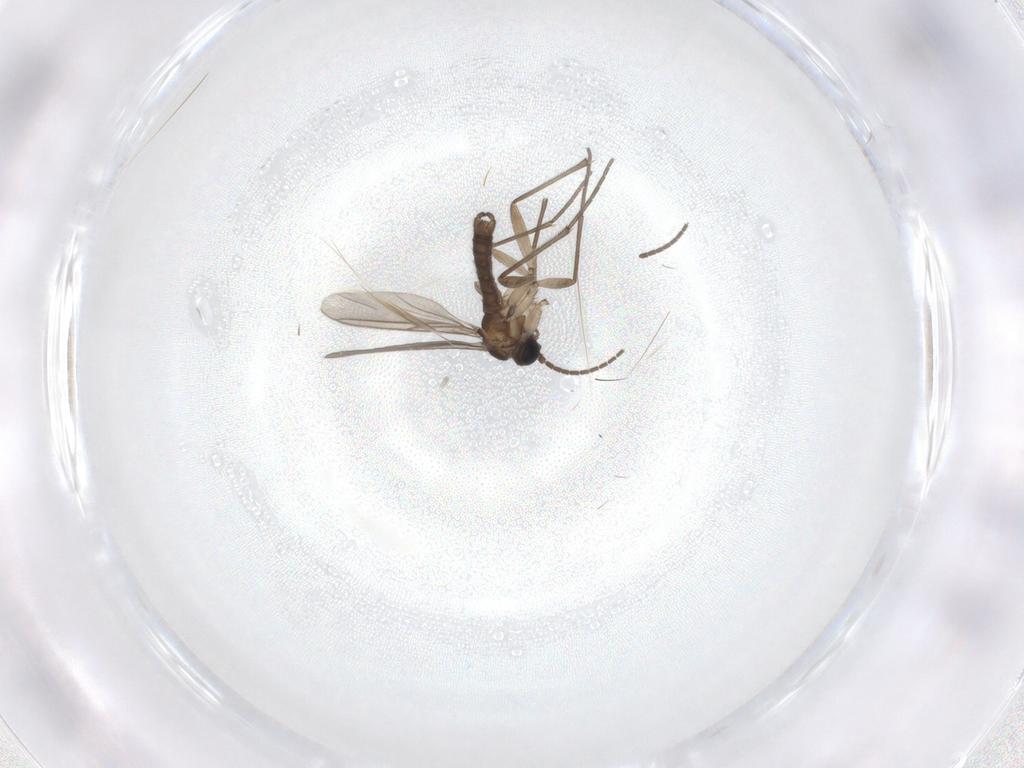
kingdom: Animalia
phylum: Arthropoda
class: Insecta
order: Diptera
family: Sciaridae
